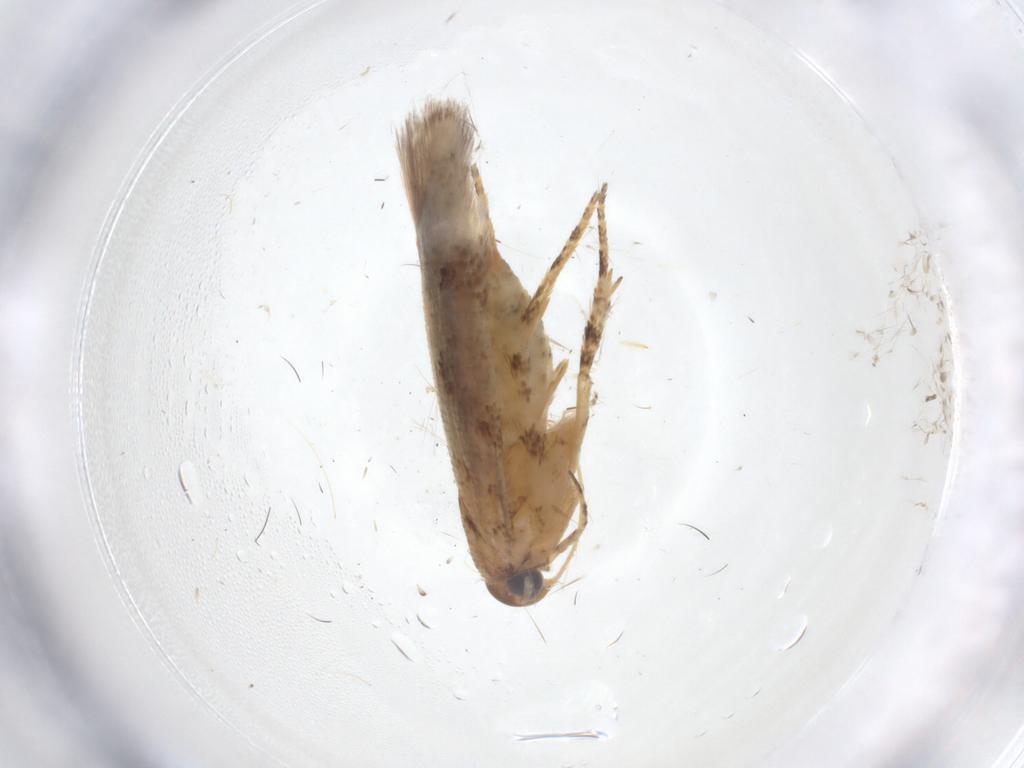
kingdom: Animalia
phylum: Arthropoda
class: Insecta
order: Lepidoptera
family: Gelechiidae
